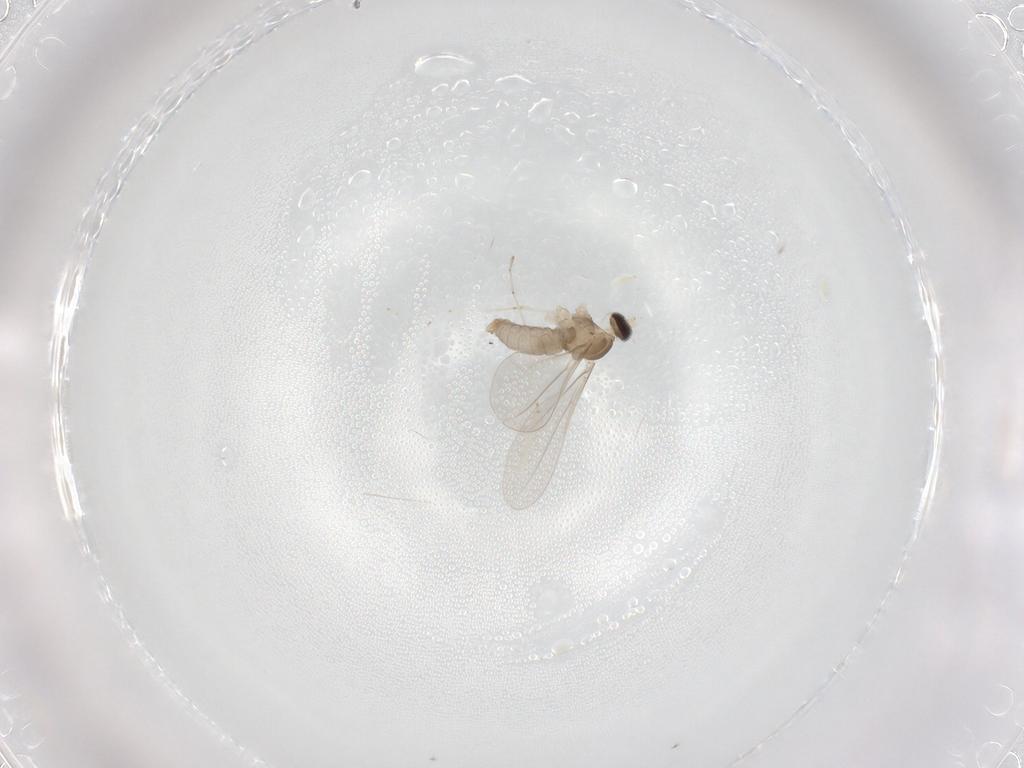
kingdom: Animalia
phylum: Arthropoda
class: Insecta
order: Diptera
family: Cecidomyiidae
